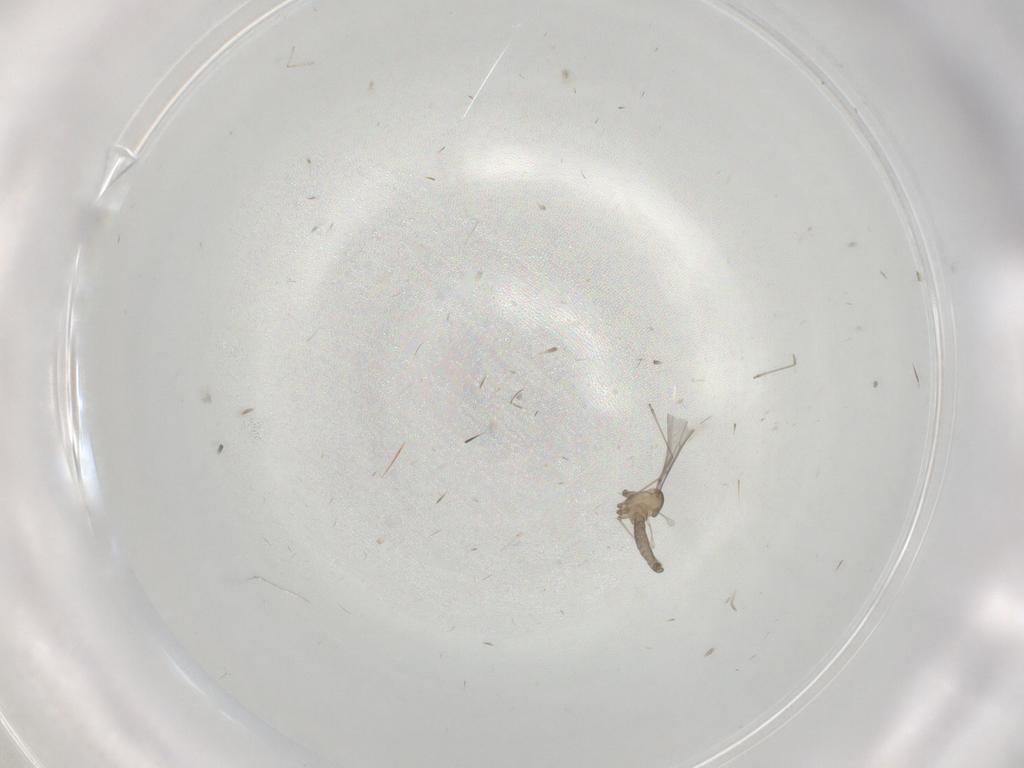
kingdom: Animalia
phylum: Arthropoda
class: Insecta
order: Diptera
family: Cecidomyiidae
